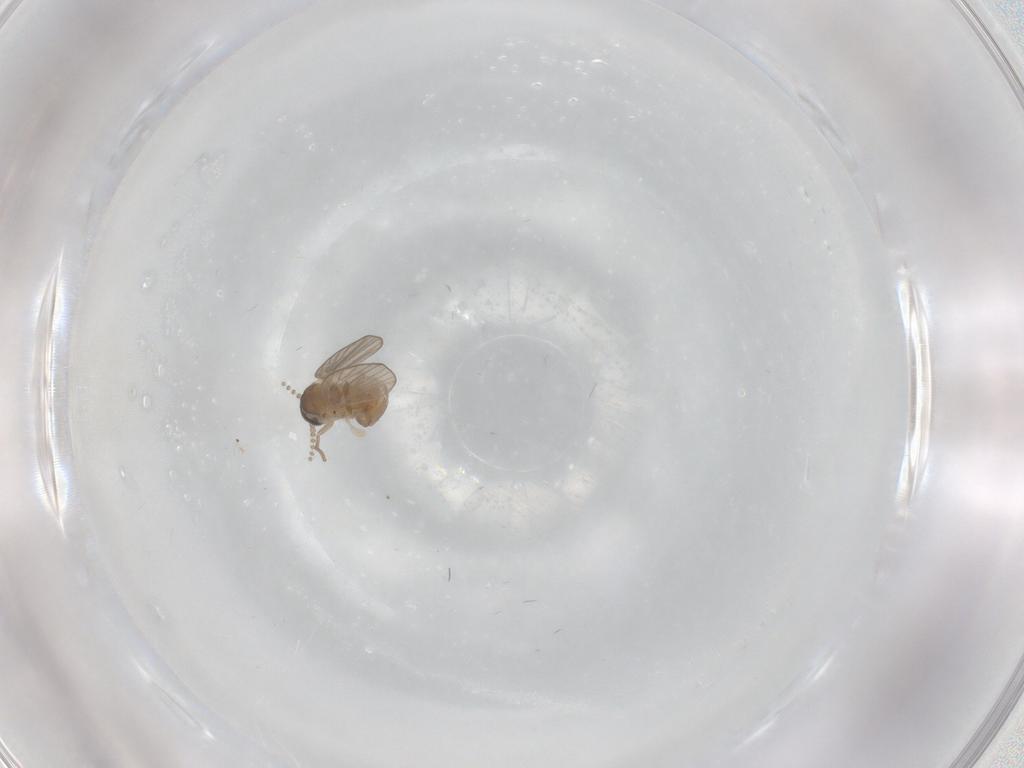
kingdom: Animalia
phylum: Arthropoda
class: Insecta
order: Diptera
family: Psychodidae
